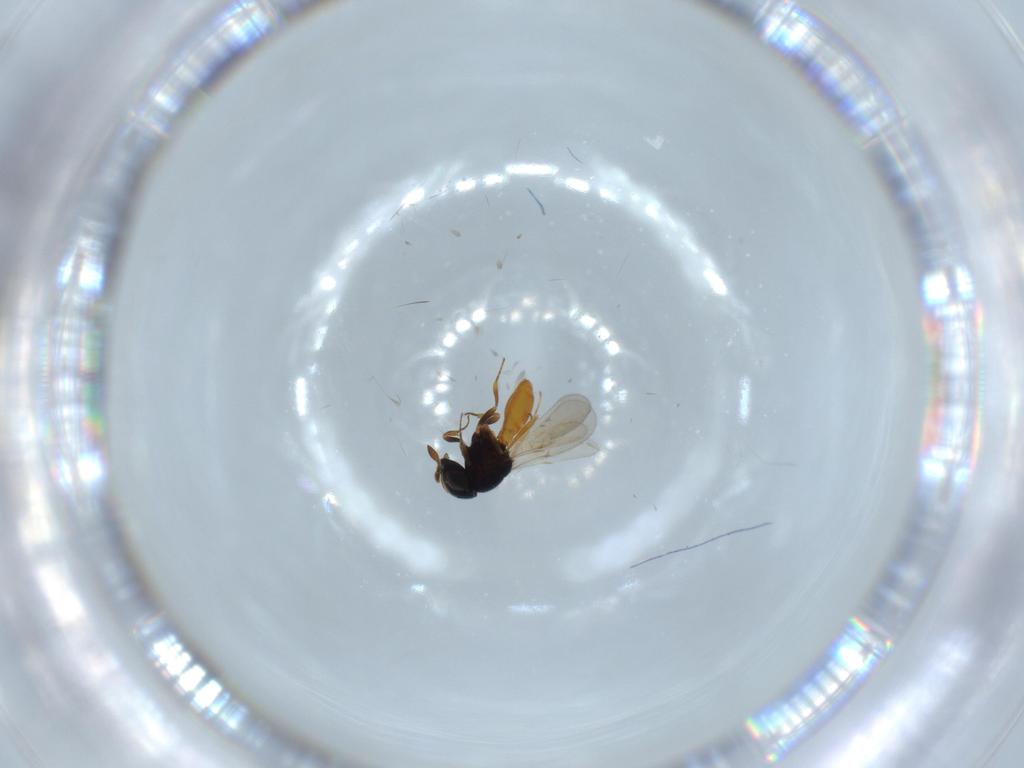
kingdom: Animalia
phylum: Arthropoda
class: Insecta
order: Hymenoptera
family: Scelionidae
